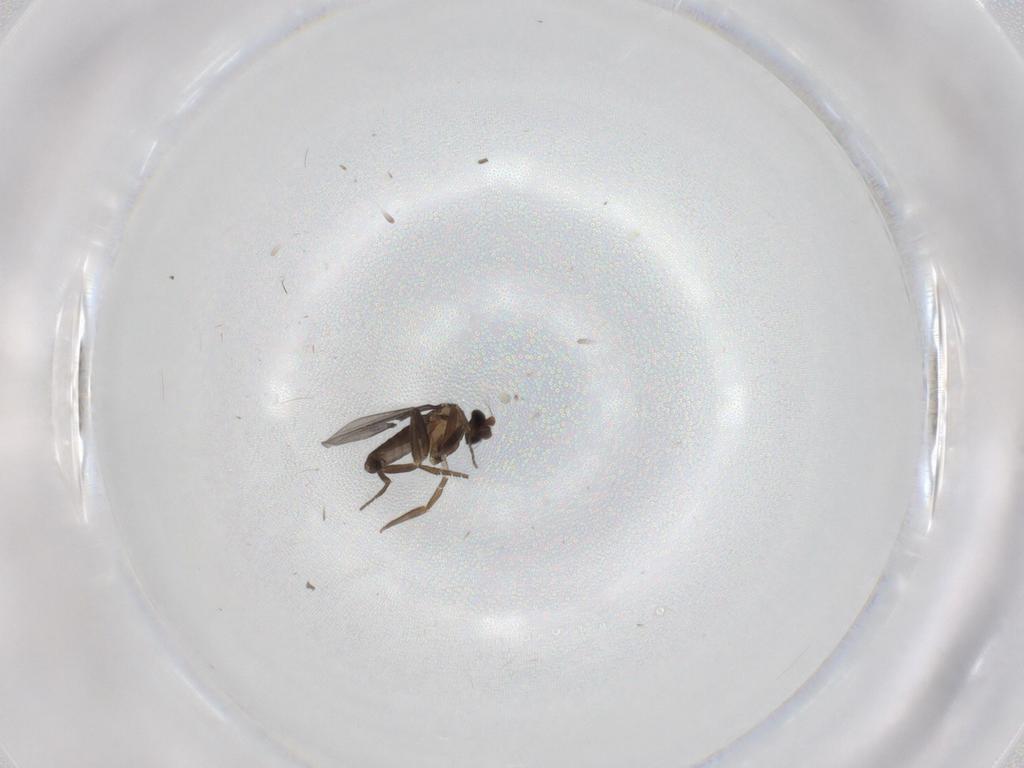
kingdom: Animalia
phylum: Arthropoda
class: Insecta
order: Diptera
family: Phoridae
